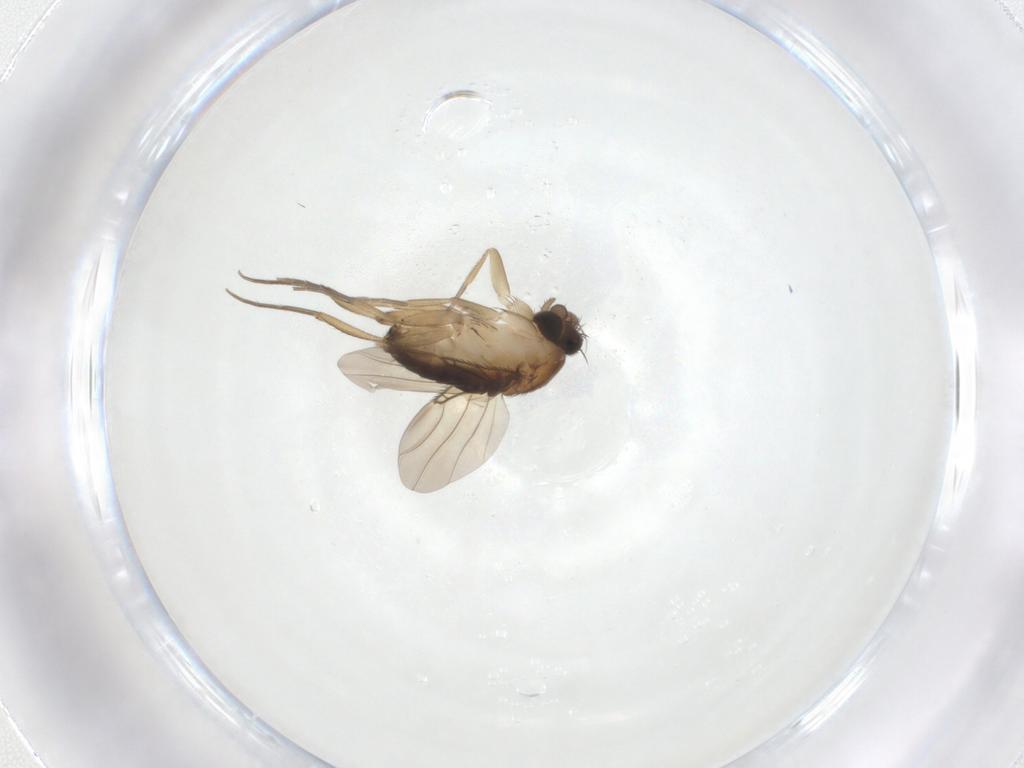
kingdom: Animalia
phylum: Arthropoda
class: Insecta
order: Diptera
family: Phoridae
